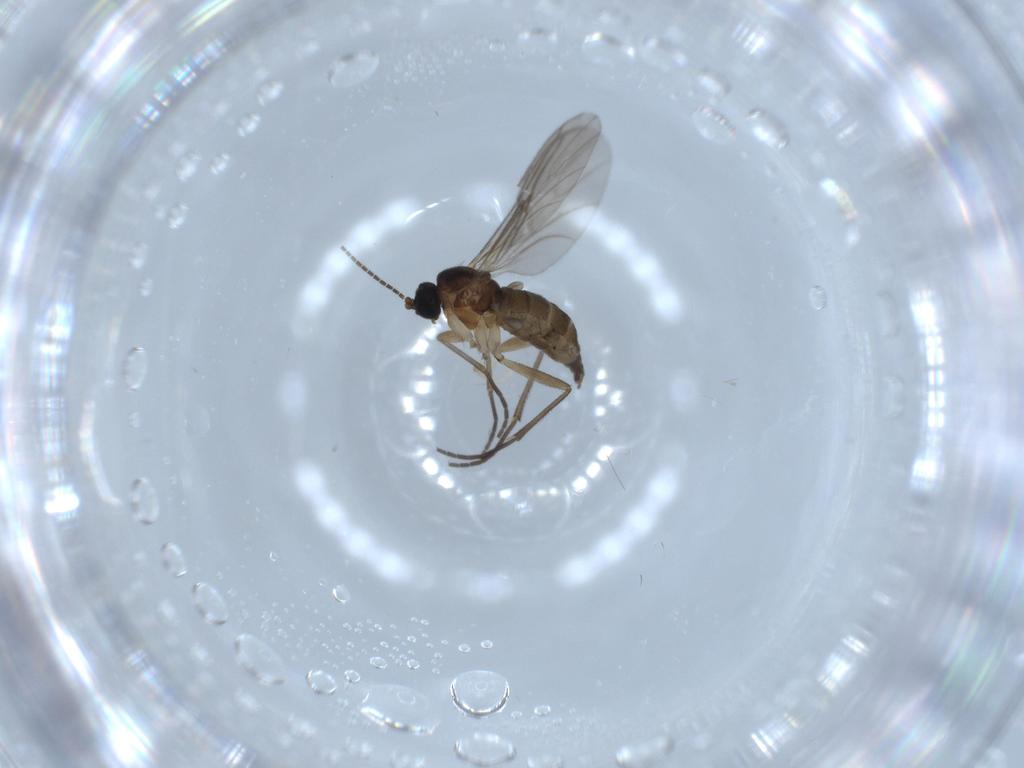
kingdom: Animalia
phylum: Arthropoda
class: Insecta
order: Diptera
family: Sciaridae
